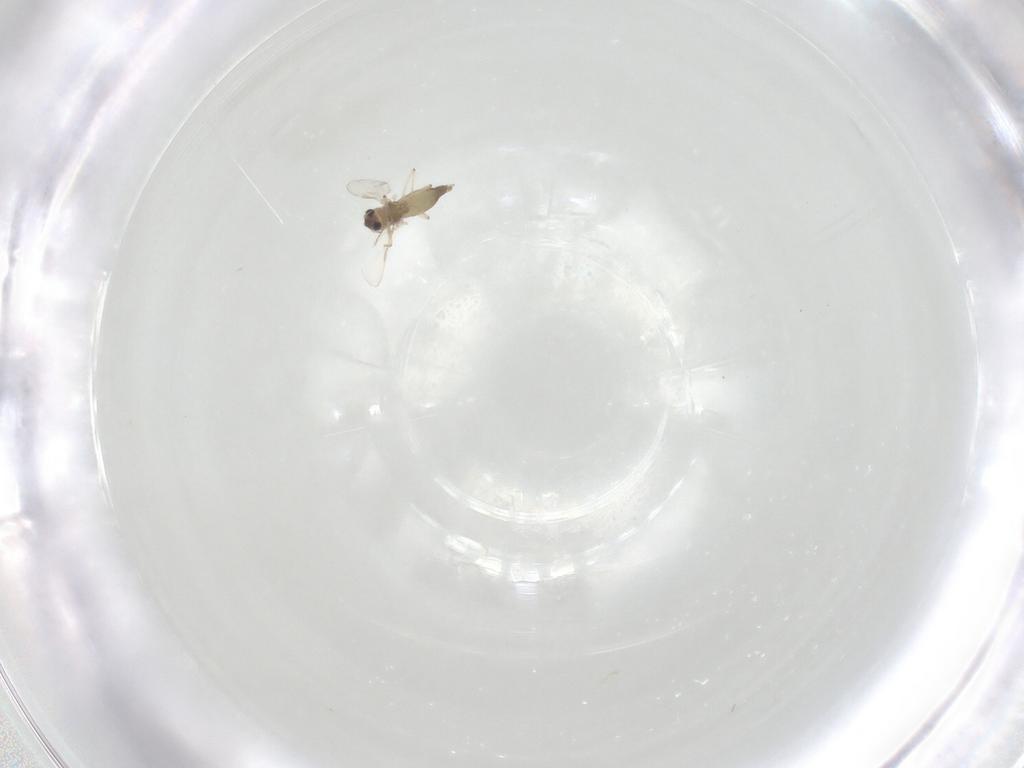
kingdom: Animalia
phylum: Arthropoda
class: Insecta
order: Diptera
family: Chironomidae
